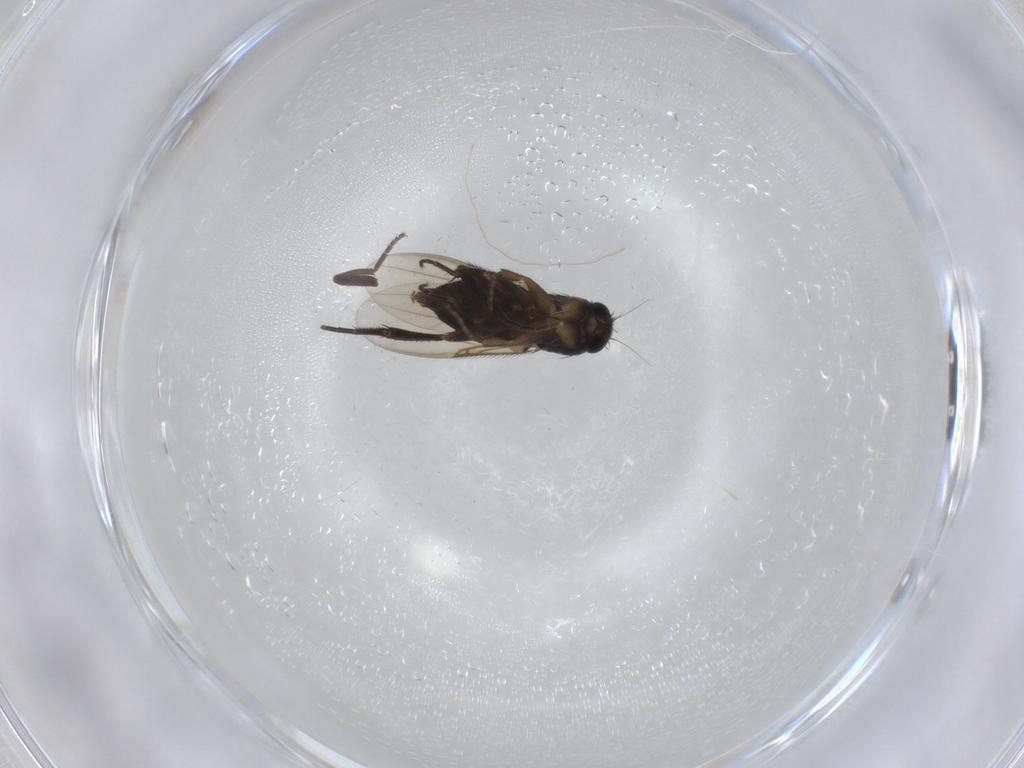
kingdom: Animalia
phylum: Arthropoda
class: Insecta
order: Diptera
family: Phoridae
